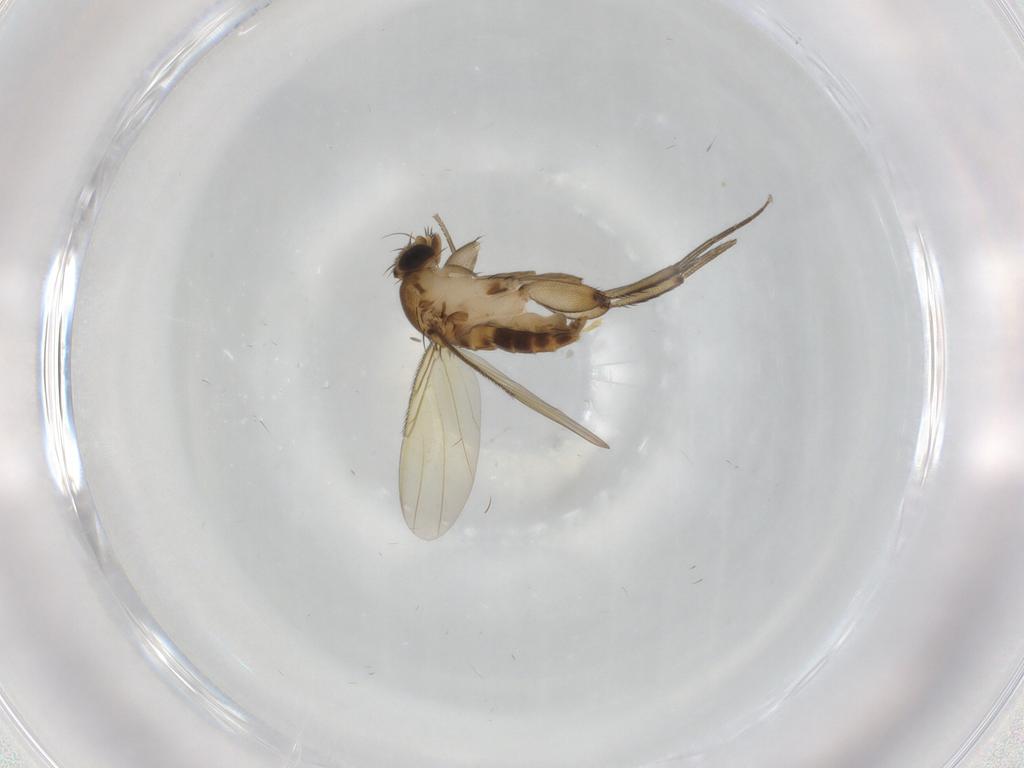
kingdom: Animalia
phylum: Arthropoda
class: Insecta
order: Diptera
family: Phoridae
